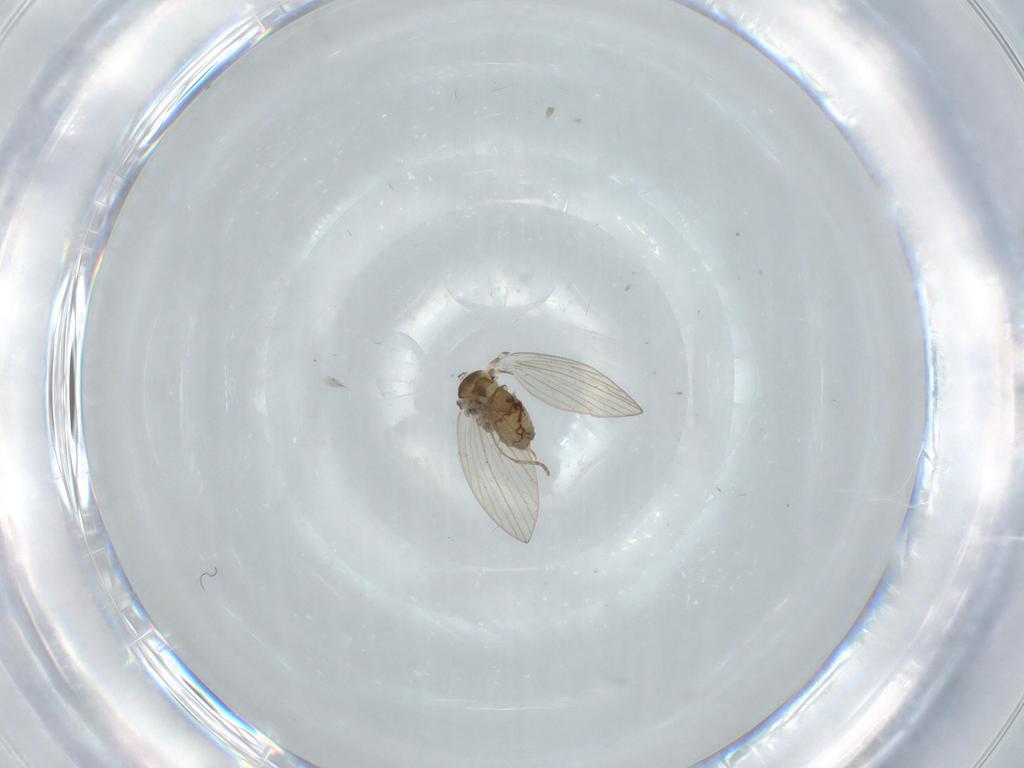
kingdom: Animalia
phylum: Arthropoda
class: Insecta
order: Diptera
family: Psychodidae
